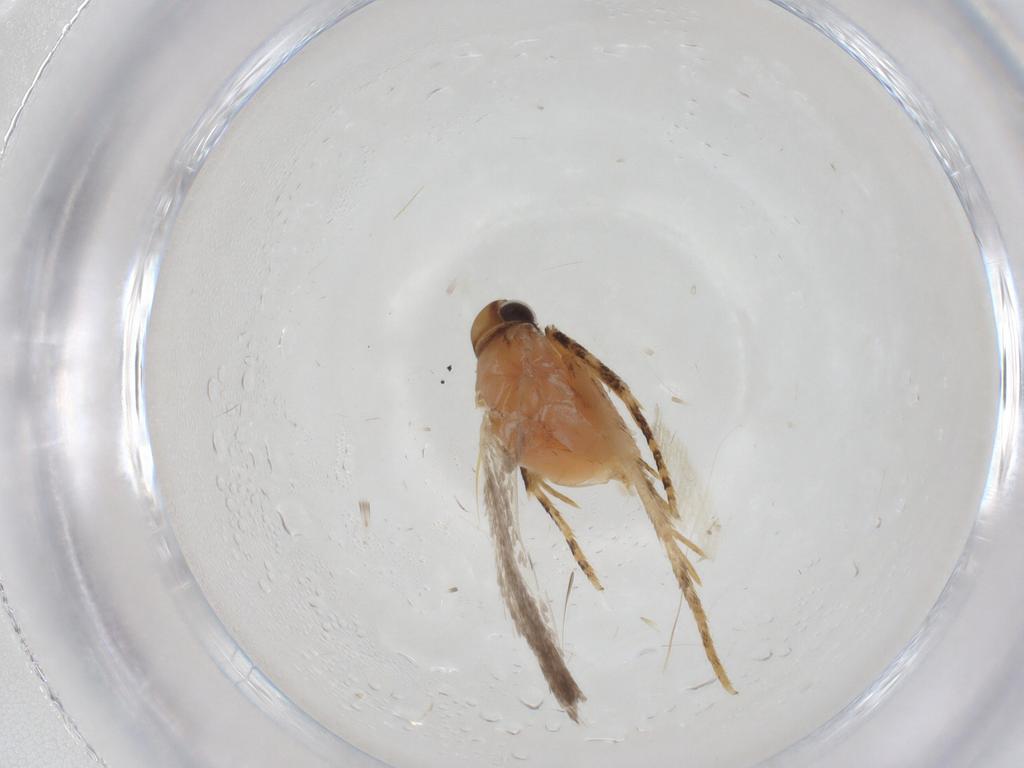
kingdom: Animalia
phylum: Arthropoda
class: Insecta
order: Lepidoptera
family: Gelechiidae
